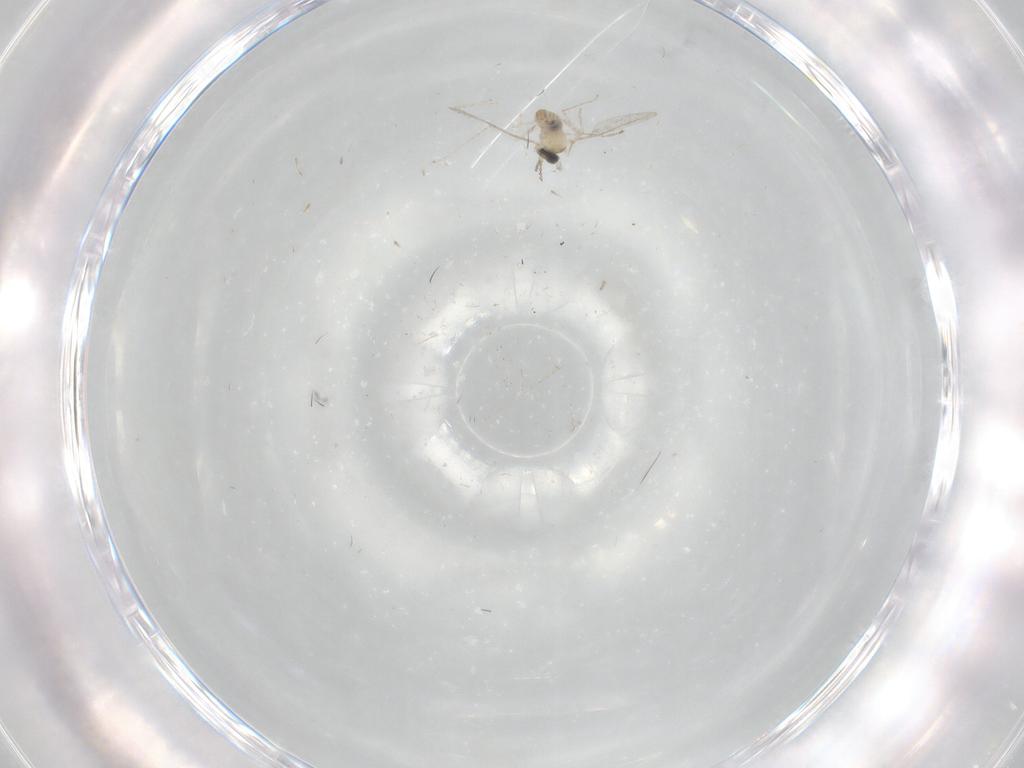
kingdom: Animalia
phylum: Arthropoda
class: Insecta
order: Diptera
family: Cecidomyiidae
